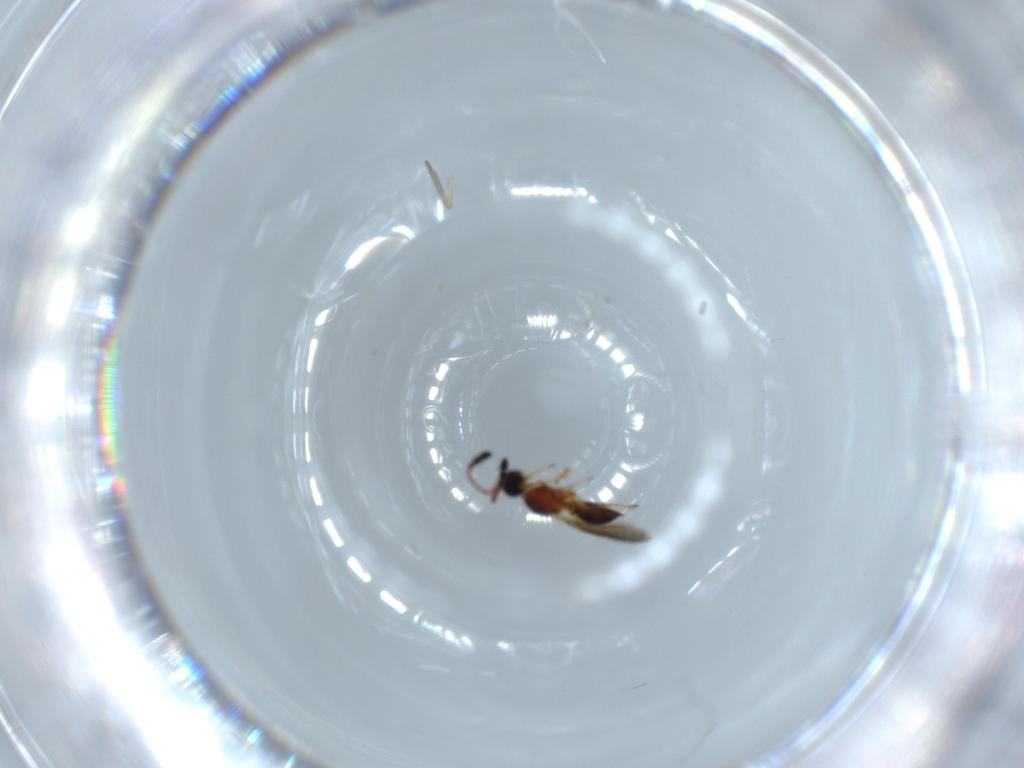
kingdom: Animalia
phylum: Arthropoda
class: Insecta
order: Hymenoptera
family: Diapriidae
